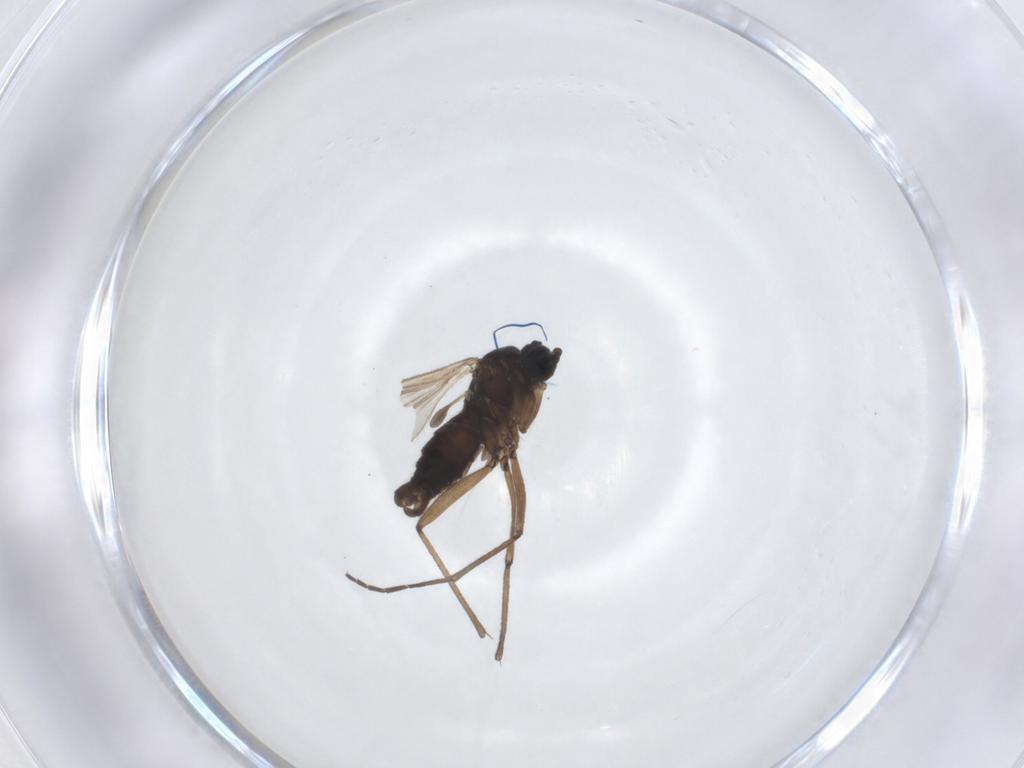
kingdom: Animalia
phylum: Arthropoda
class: Insecta
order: Diptera
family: Sciaridae
